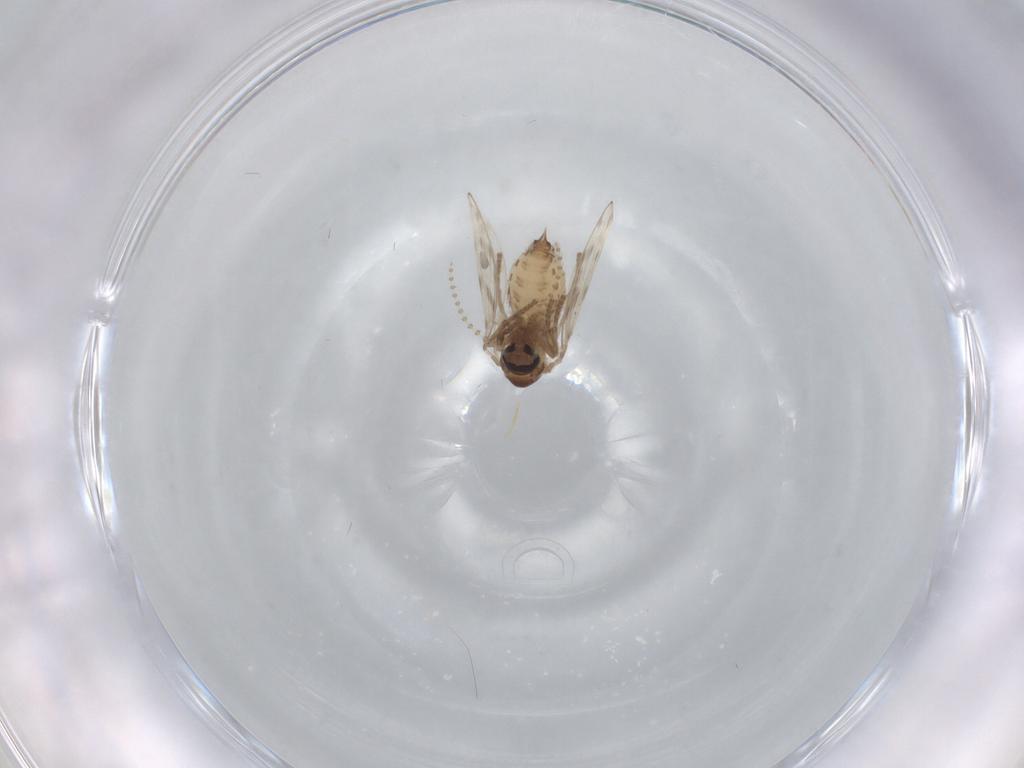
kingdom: Animalia
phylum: Arthropoda
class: Insecta
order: Diptera
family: Psychodidae
